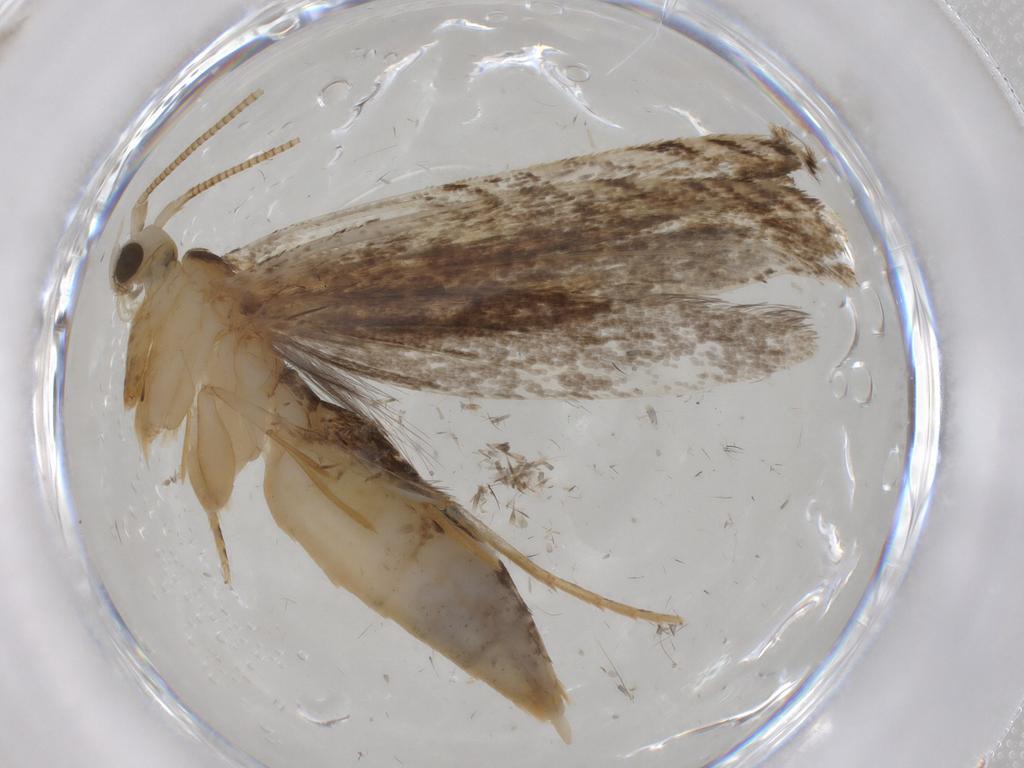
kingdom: Animalia
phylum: Arthropoda
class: Insecta
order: Lepidoptera
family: Nepticulidae
